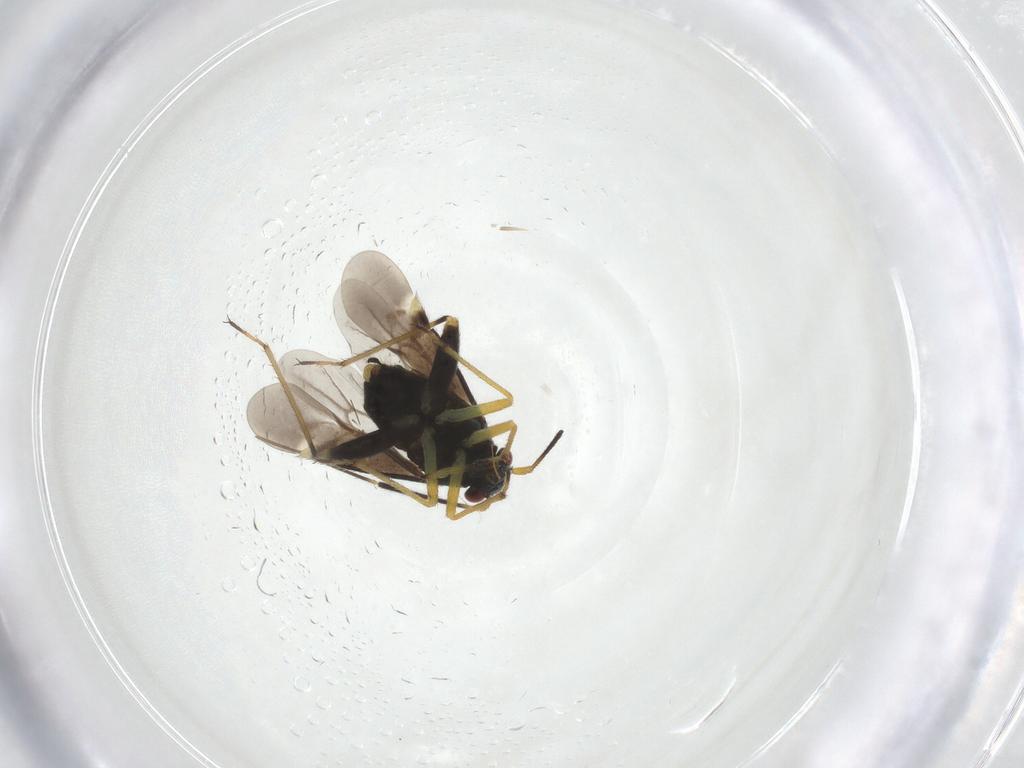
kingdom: Animalia
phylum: Arthropoda
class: Insecta
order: Hemiptera
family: Miridae
